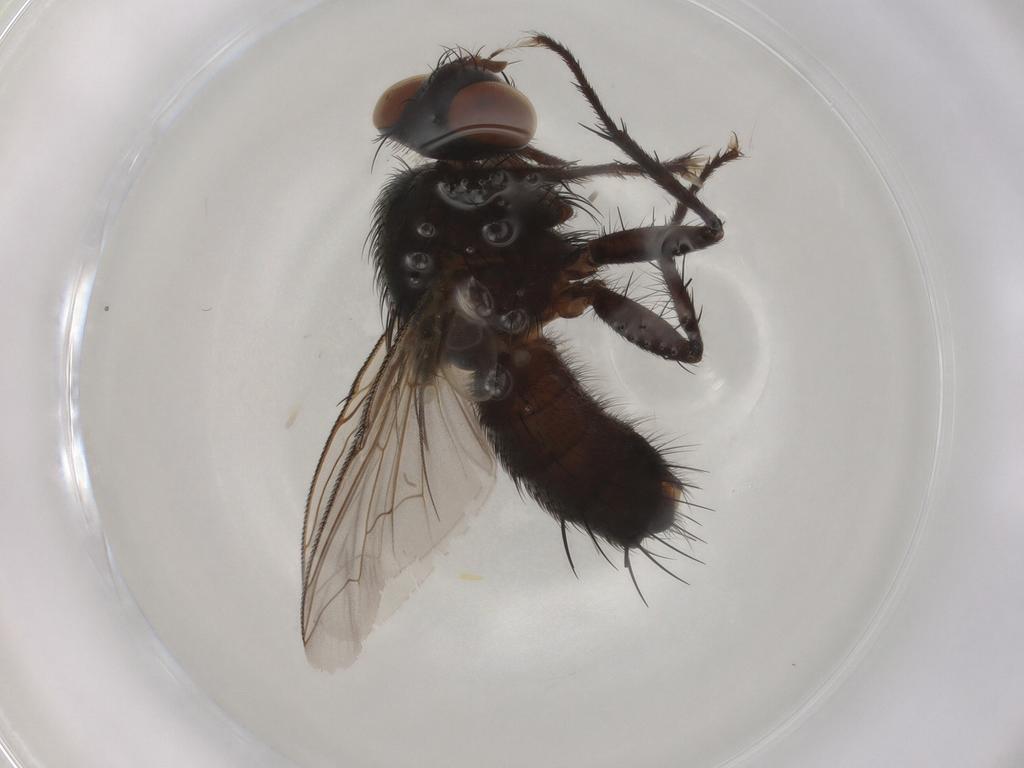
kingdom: Animalia
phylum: Arthropoda
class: Insecta
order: Diptera
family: Sarcophagidae
